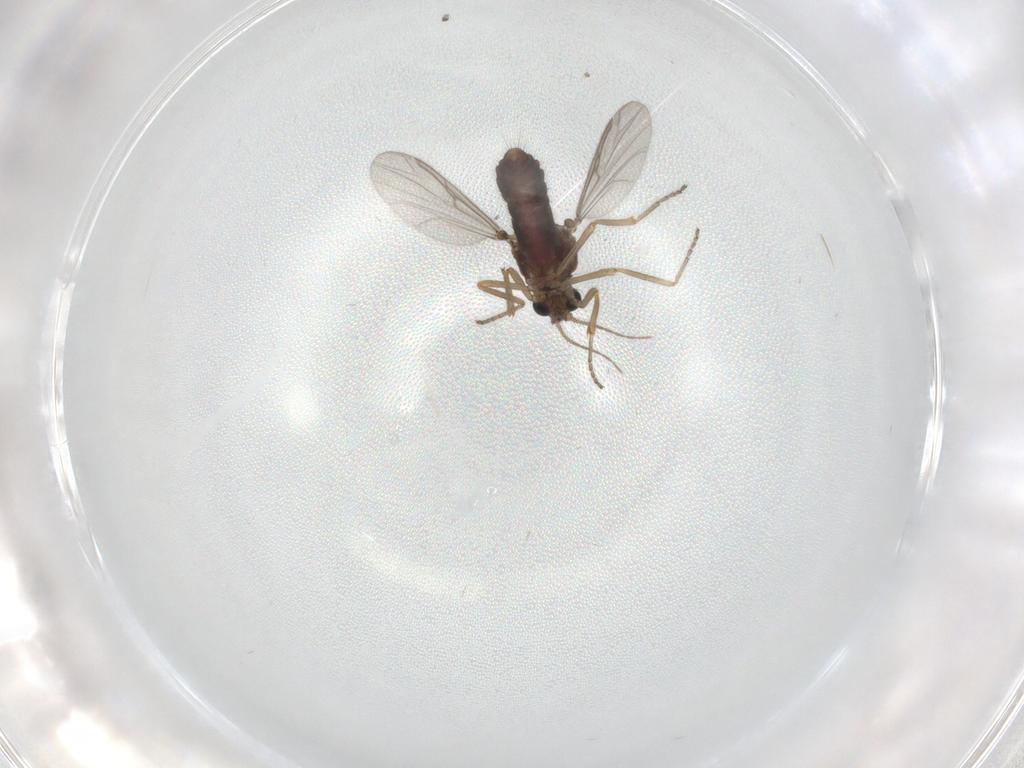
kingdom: Animalia
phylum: Arthropoda
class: Insecta
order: Diptera
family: Ceratopogonidae
